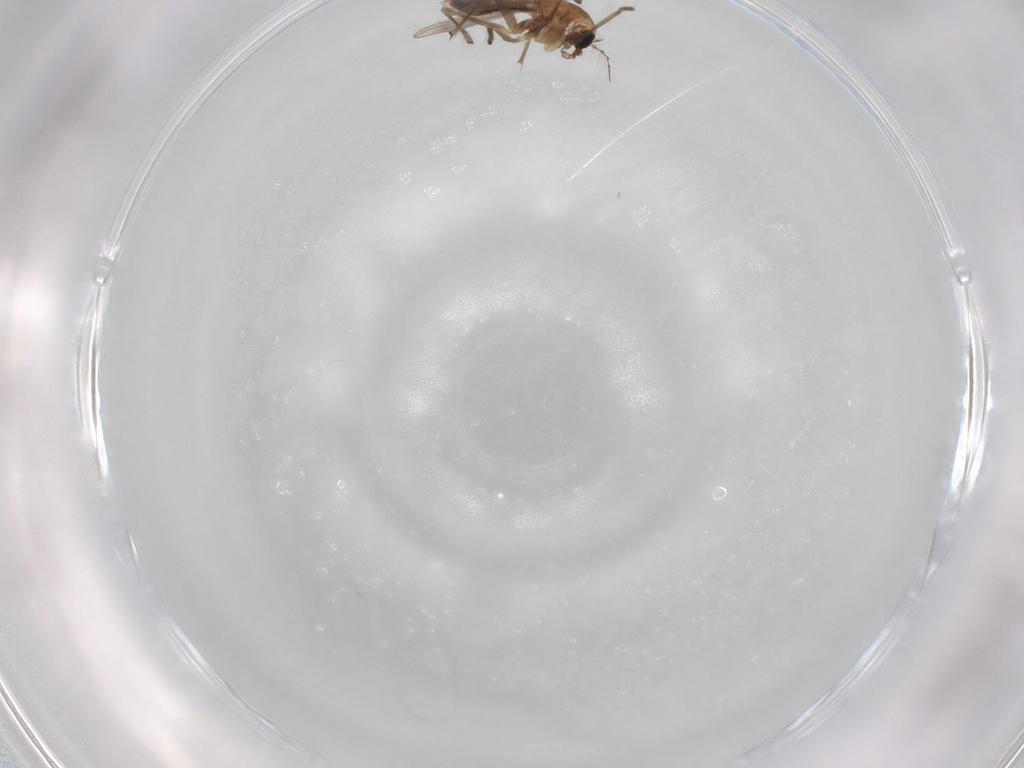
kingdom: Animalia
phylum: Arthropoda
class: Insecta
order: Diptera
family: Chironomidae
